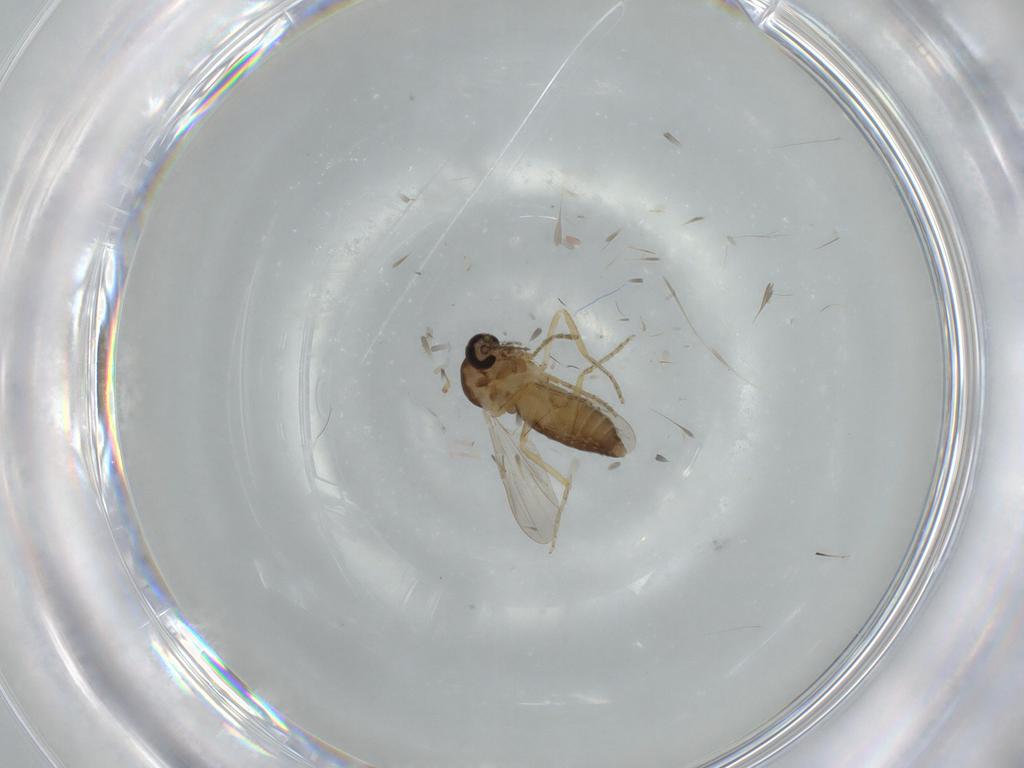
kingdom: Animalia
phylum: Arthropoda
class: Insecta
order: Diptera
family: Ceratopogonidae
